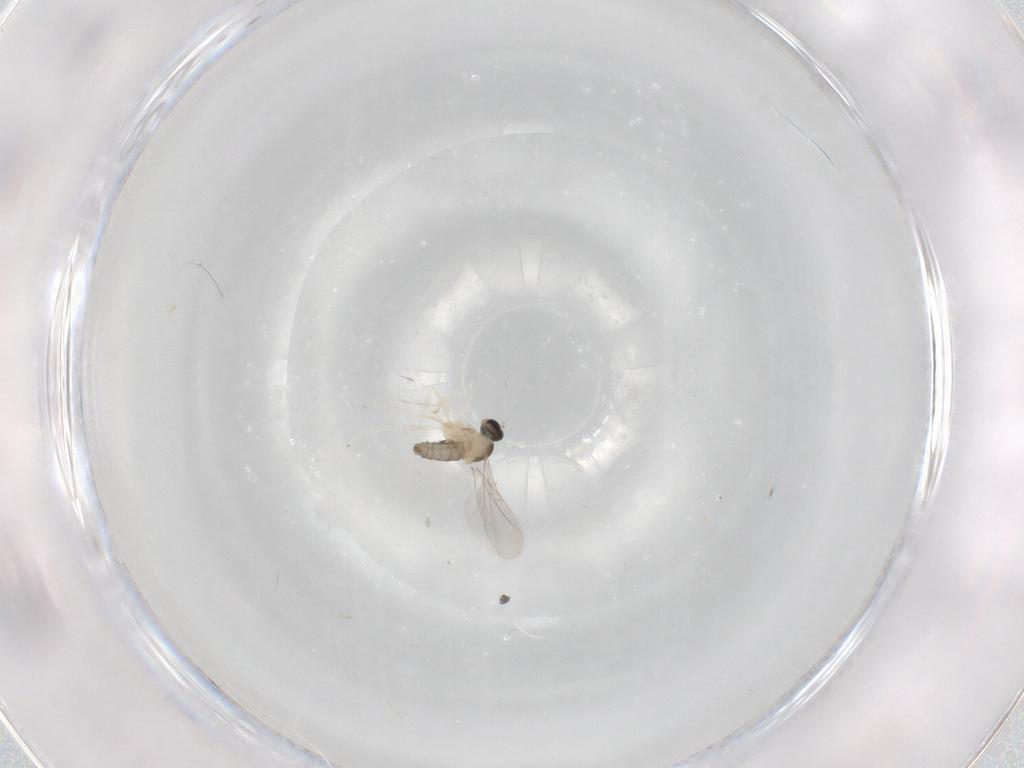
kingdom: Animalia
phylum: Arthropoda
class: Insecta
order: Diptera
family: Cecidomyiidae
